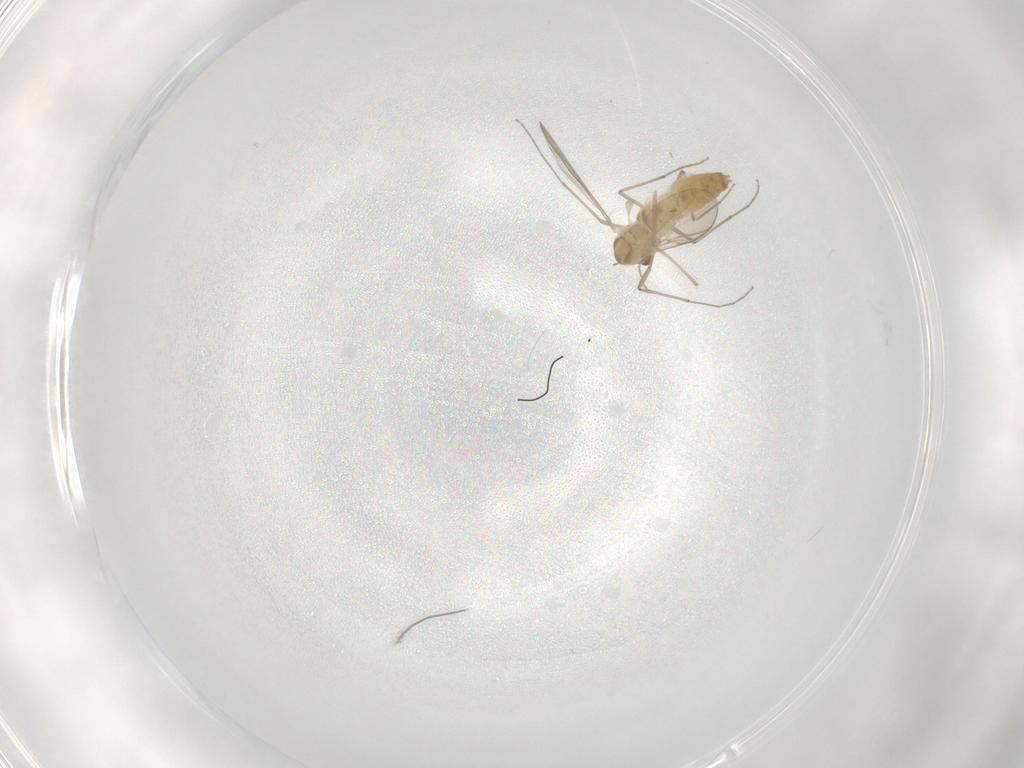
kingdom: Animalia
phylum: Arthropoda
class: Insecta
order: Diptera
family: Chironomidae
